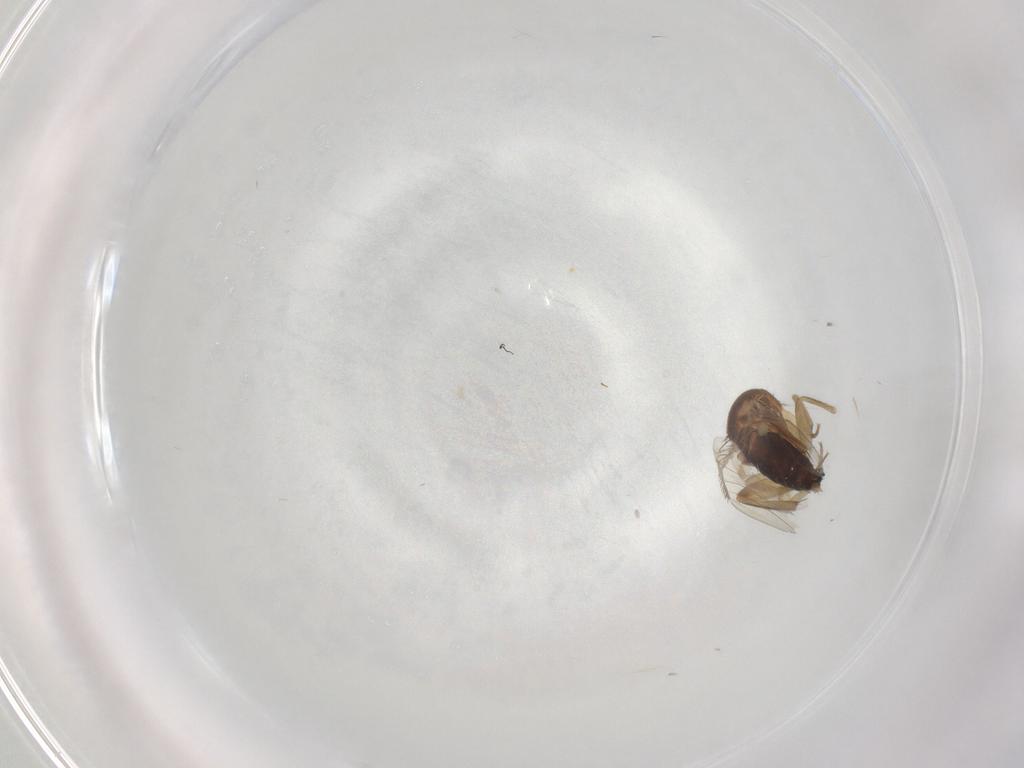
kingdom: Animalia
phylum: Arthropoda
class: Insecta
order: Diptera
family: Phoridae
